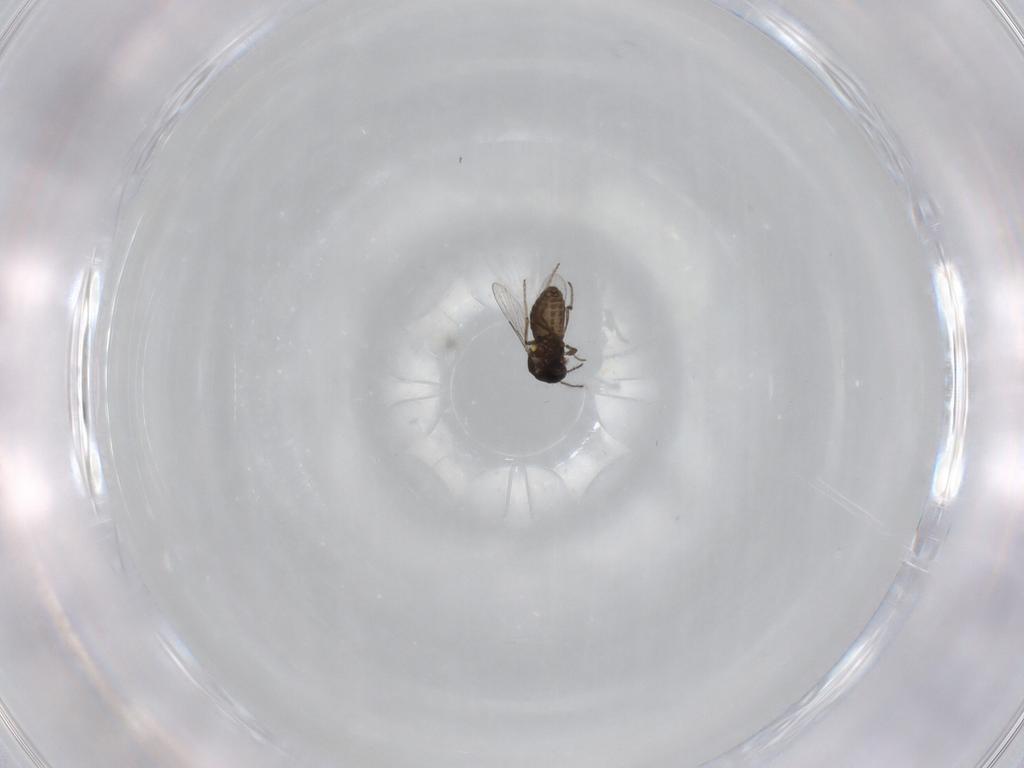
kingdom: Animalia
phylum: Arthropoda
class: Insecta
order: Diptera
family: Ceratopogonidae
